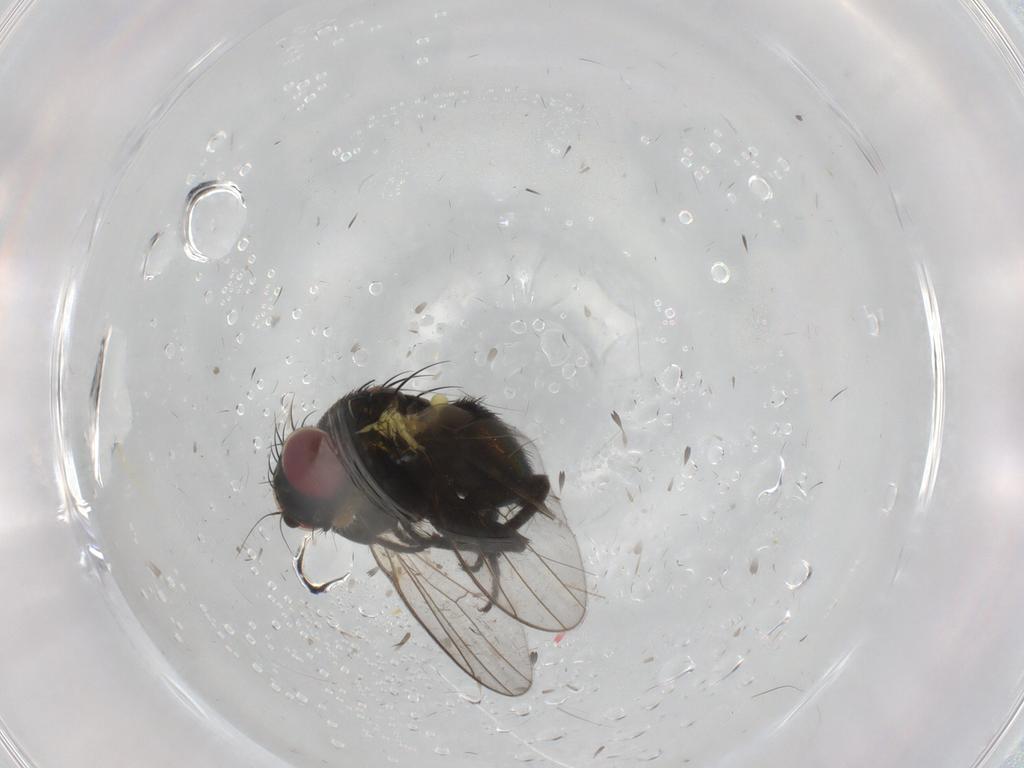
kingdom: Animalia
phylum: Arthropoda
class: Insecta
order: Diptera
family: Agromyzidae
